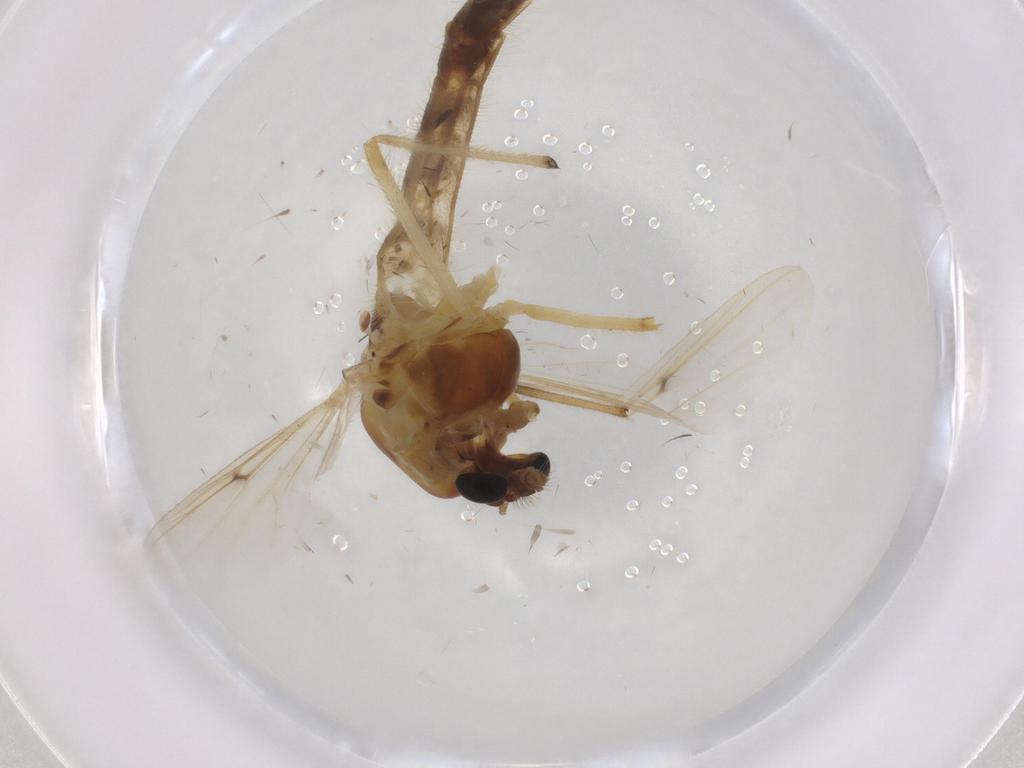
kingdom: Animalia
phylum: Arthropoda
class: Insecta
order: Diptera
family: Chironomidae
